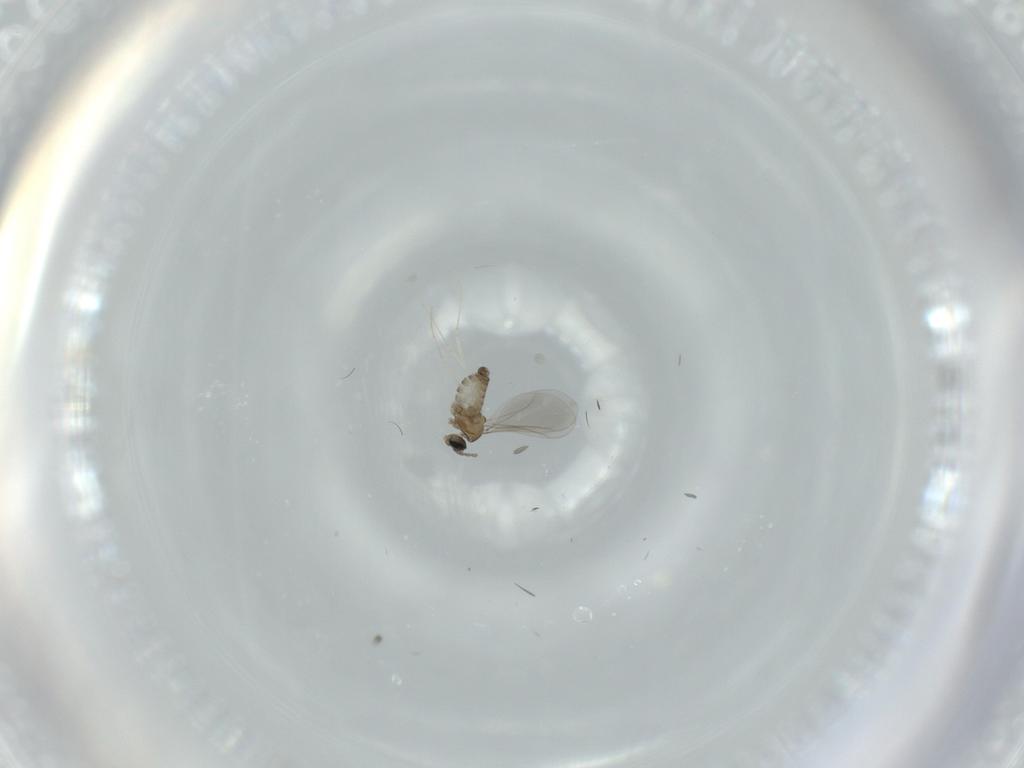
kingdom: Animalia
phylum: Arthropoda
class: Insecta
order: Diptera
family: Cecidomyiidae
